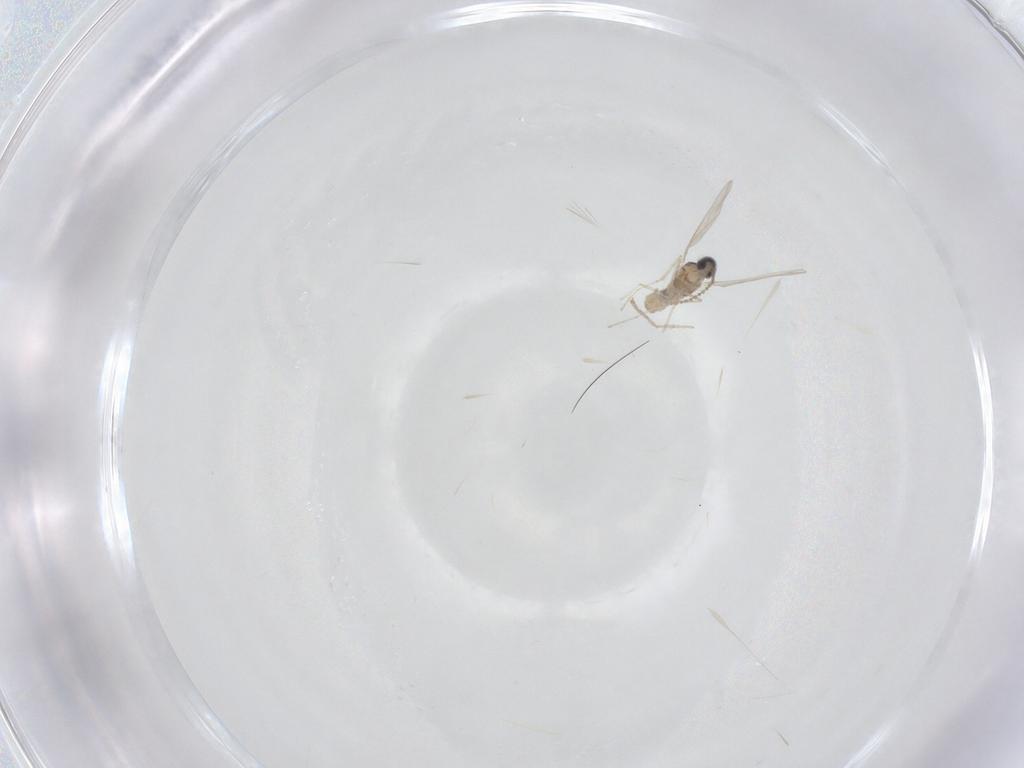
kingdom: Animalia
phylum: Arthropoda
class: Insecta
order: Diptera
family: Cecidomyiidae
